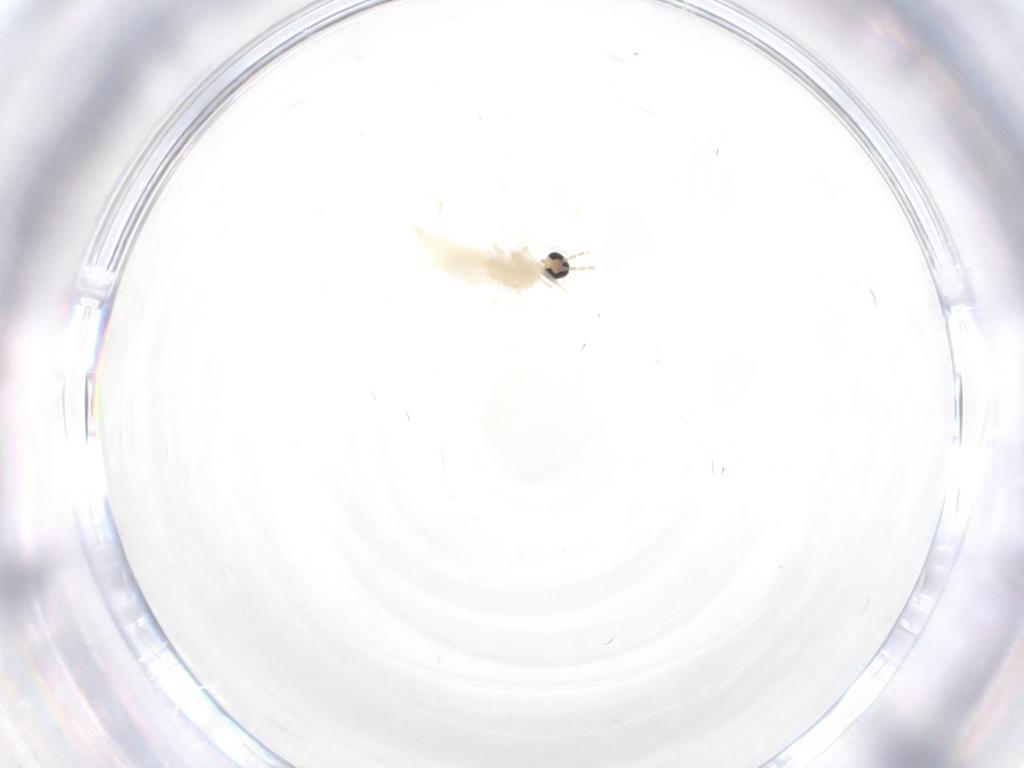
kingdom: Animalia
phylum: Arthropoda
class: Insecta
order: Diptera
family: Cecidomyiidae
